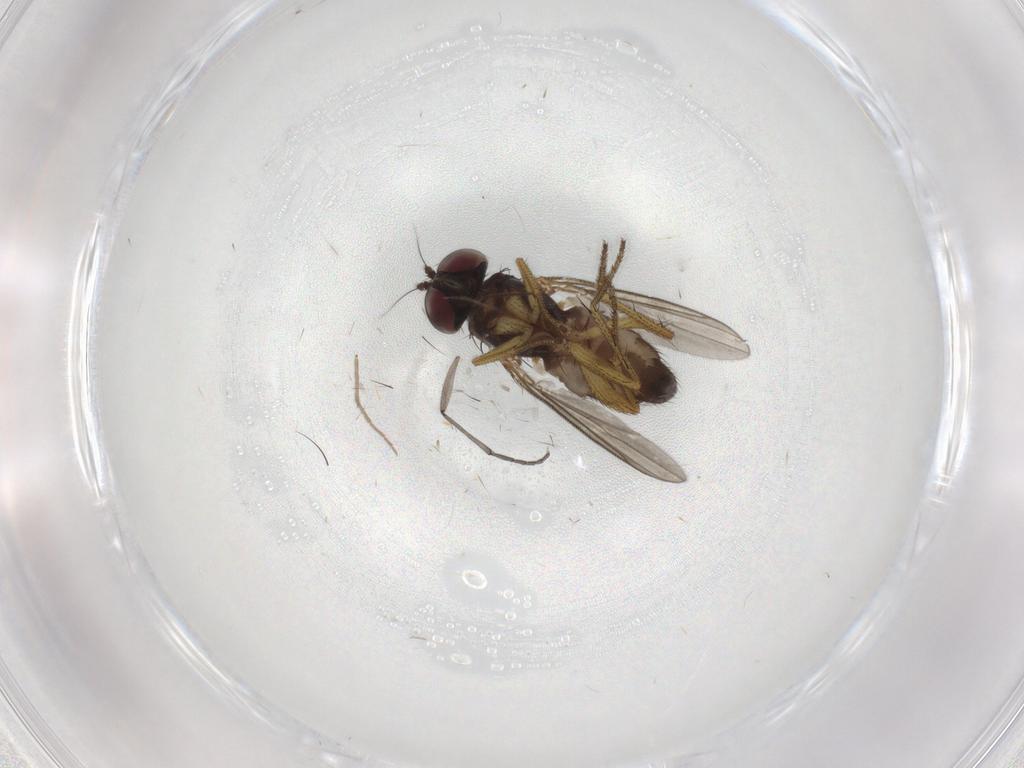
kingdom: Animalia
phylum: Arthropoda
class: Insecta
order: Diptera
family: Sciaridae
